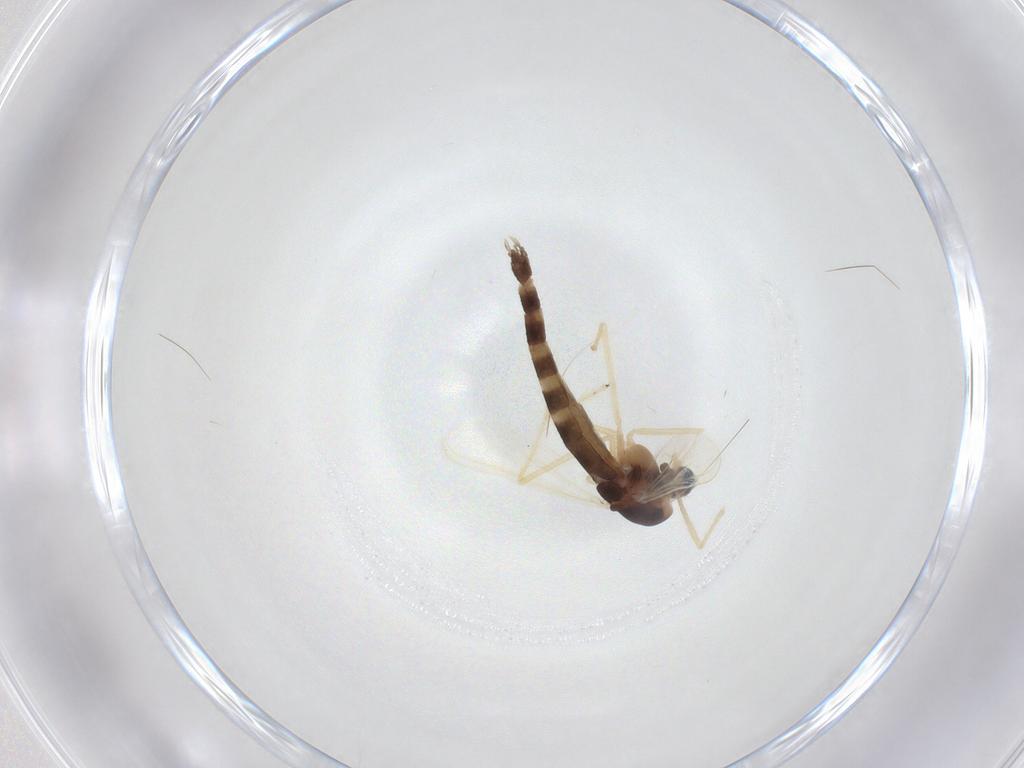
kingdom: Animalia
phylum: Arthropoda
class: Insecta
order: Diptera
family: Chironomidae
